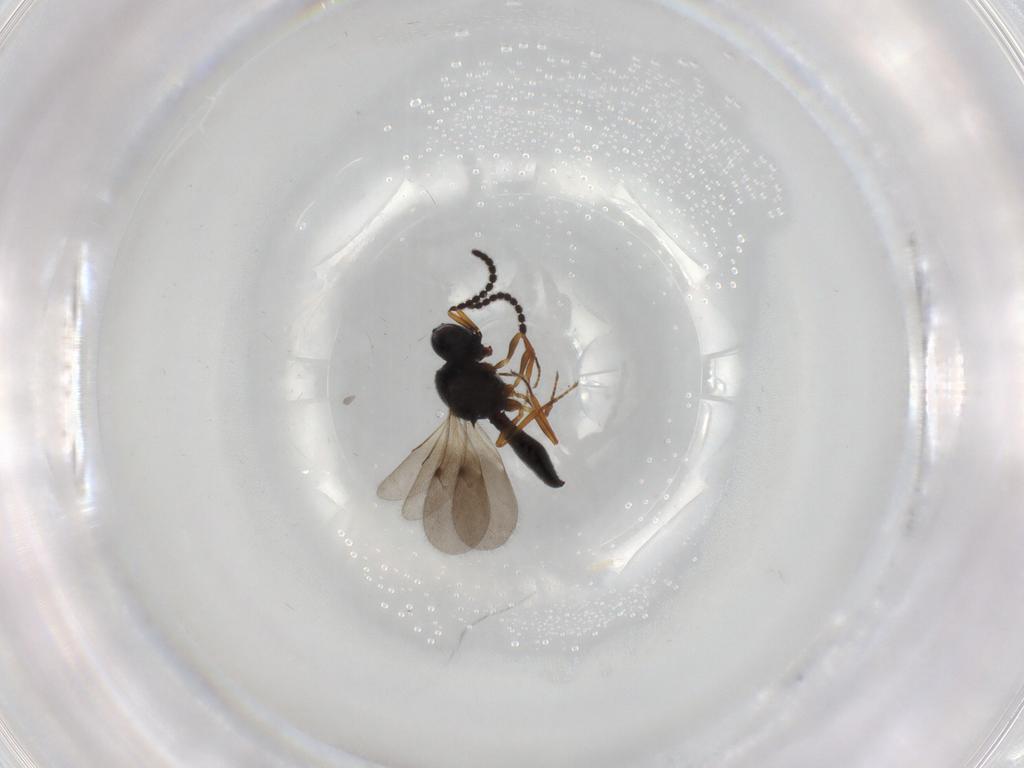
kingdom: Animalia
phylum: Arthropoda
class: Insecta
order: Hymenoptera
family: Scelionidae
